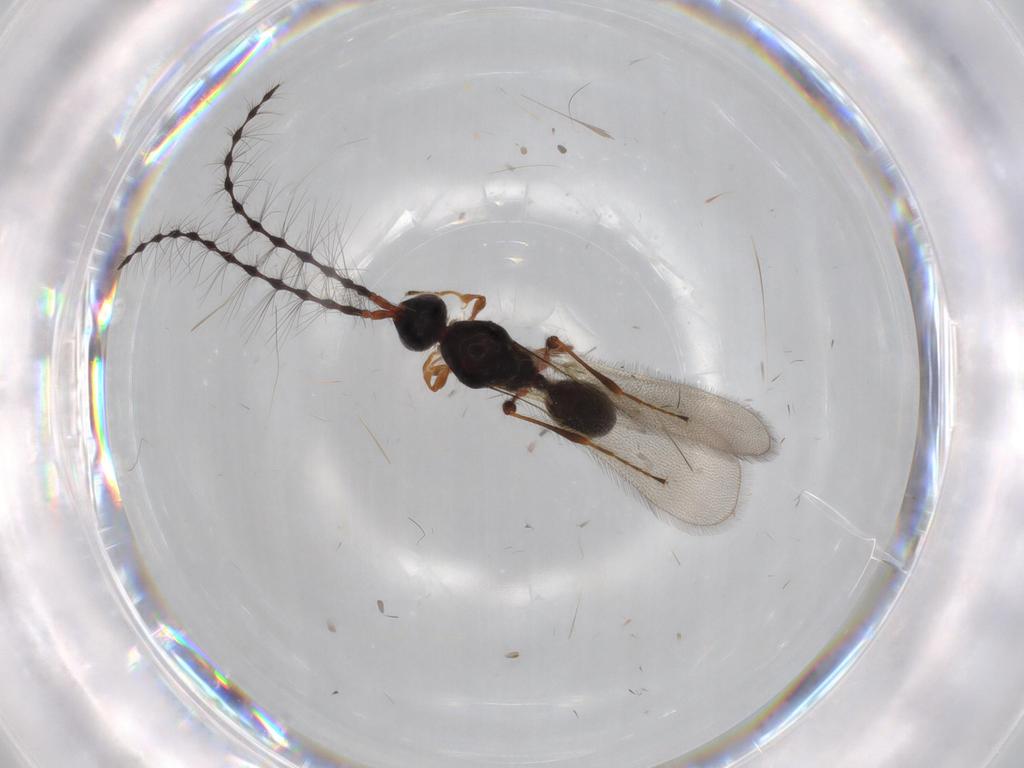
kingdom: Animalia
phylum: Arthropoda
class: Insecta
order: Hymenoptera
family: Diapriidae
